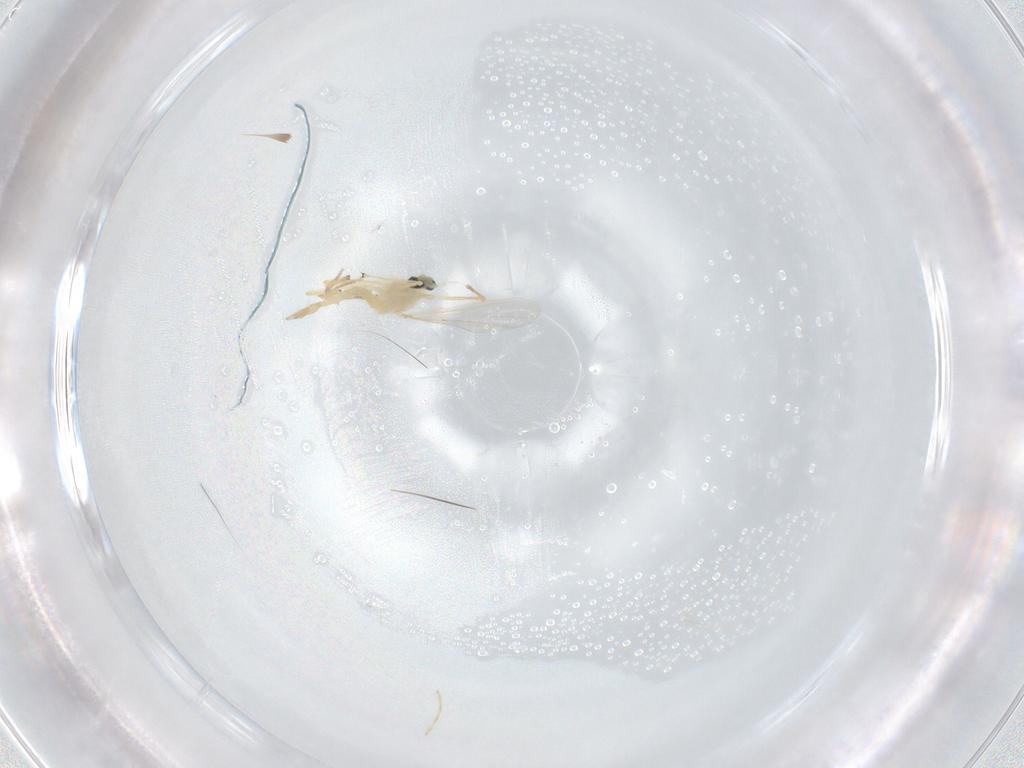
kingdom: Animalia
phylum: Arthropoda
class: Insecta
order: Diptera
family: Chironomidae
